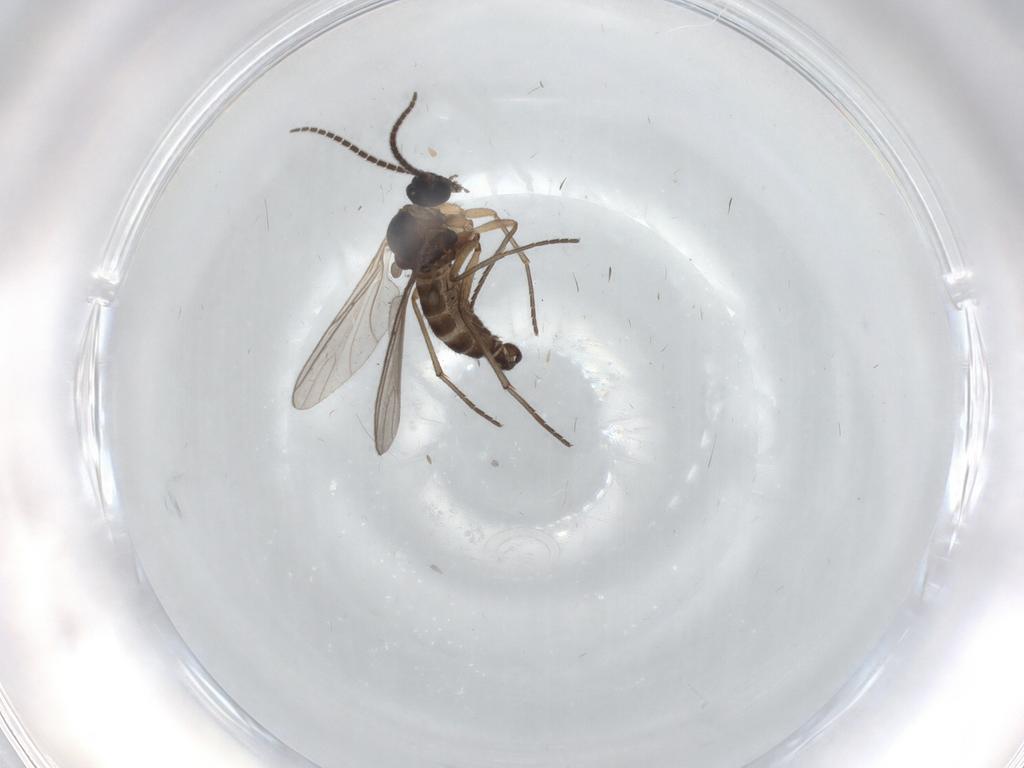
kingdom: Animalia
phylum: Arthropoda
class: Insecta
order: Diptera
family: Sciaridae
